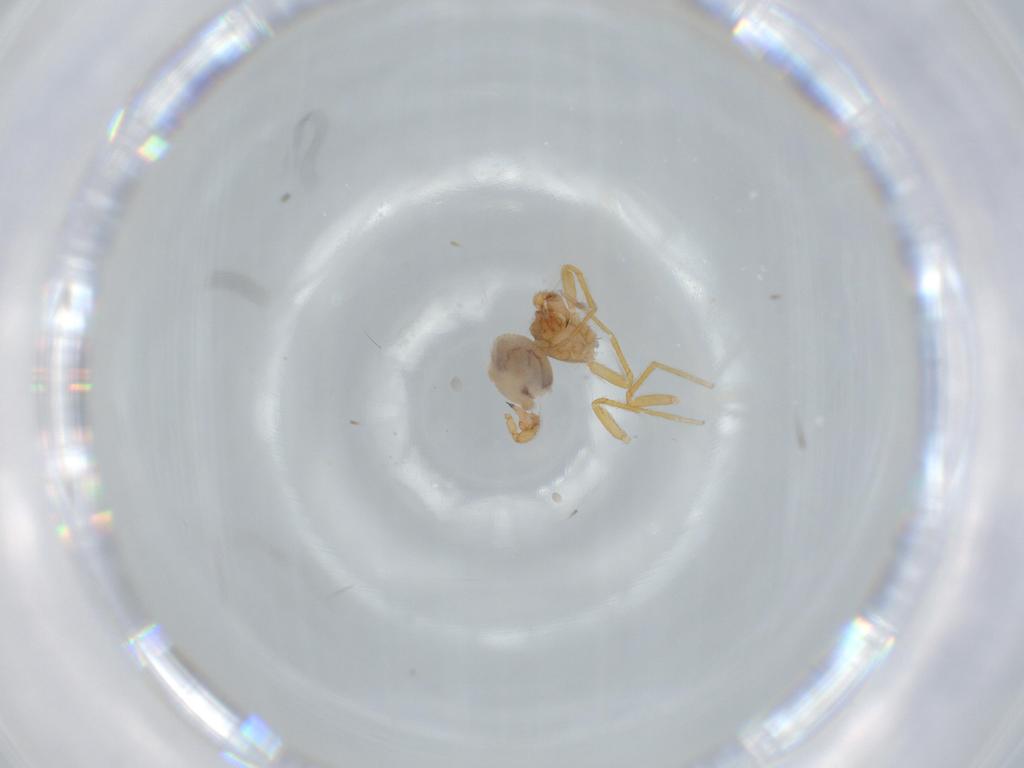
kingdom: Animalia
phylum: Arthropoda
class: Arachnida
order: Araneae
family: Oonopidae
